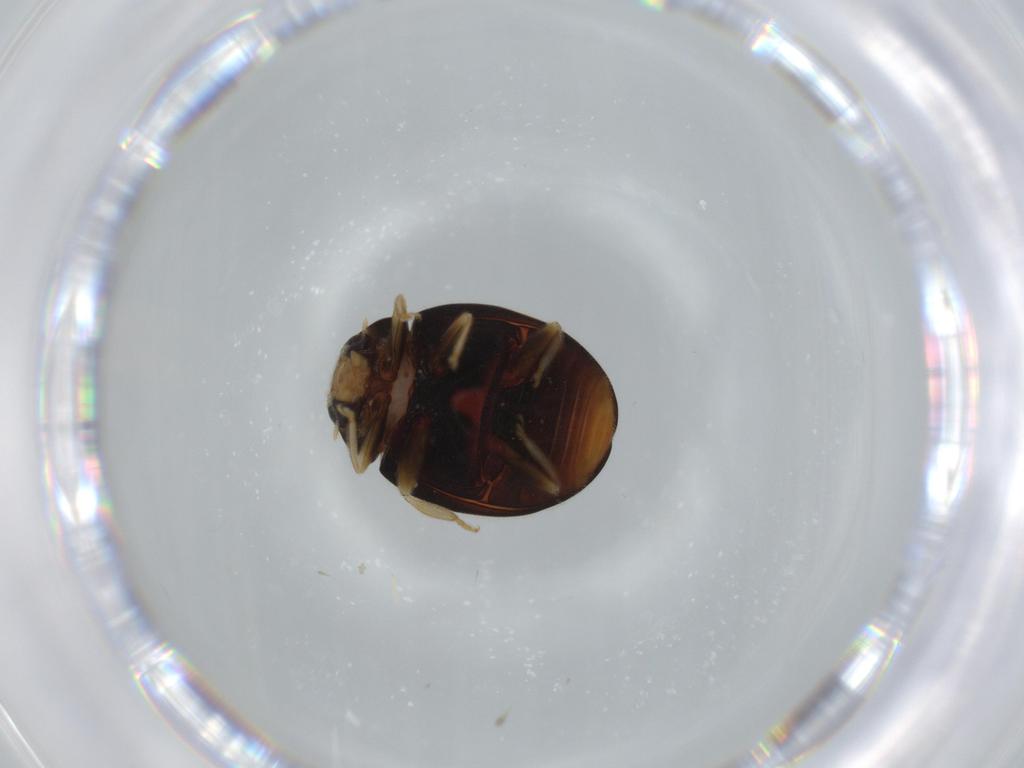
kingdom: Animalia
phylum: Arthropoda
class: Insecta
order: Coleoptera
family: Coccinellidae
